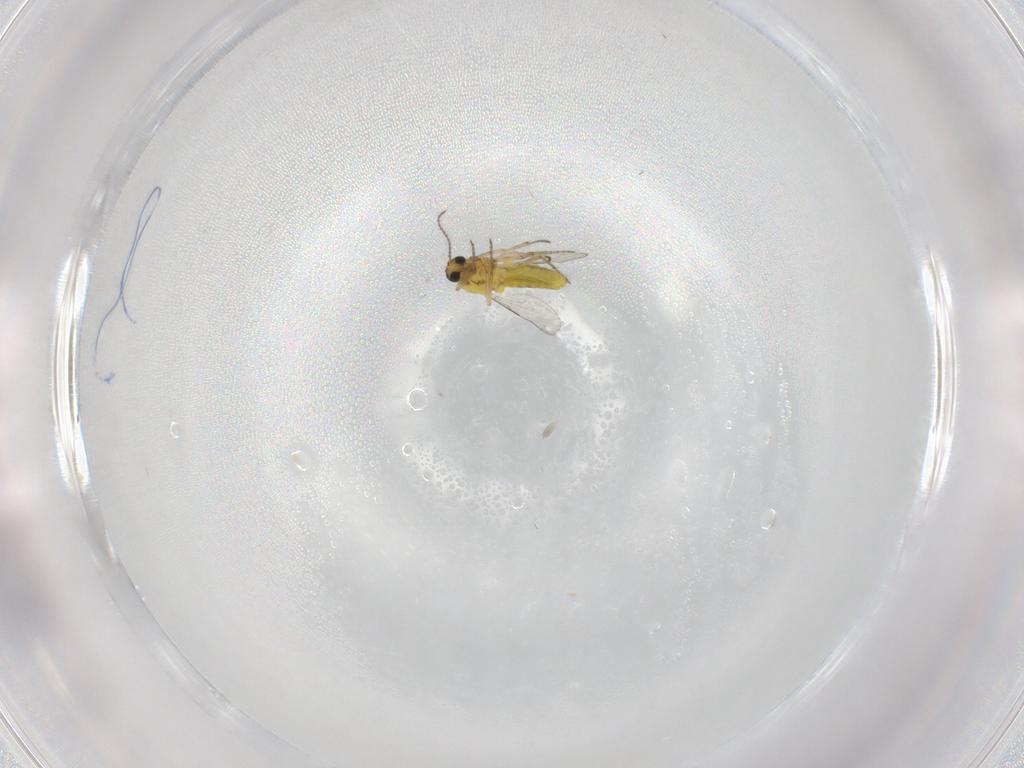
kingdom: Animalia
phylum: Arthropoda
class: Insecta
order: Diptera
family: Ceratopogonidae
